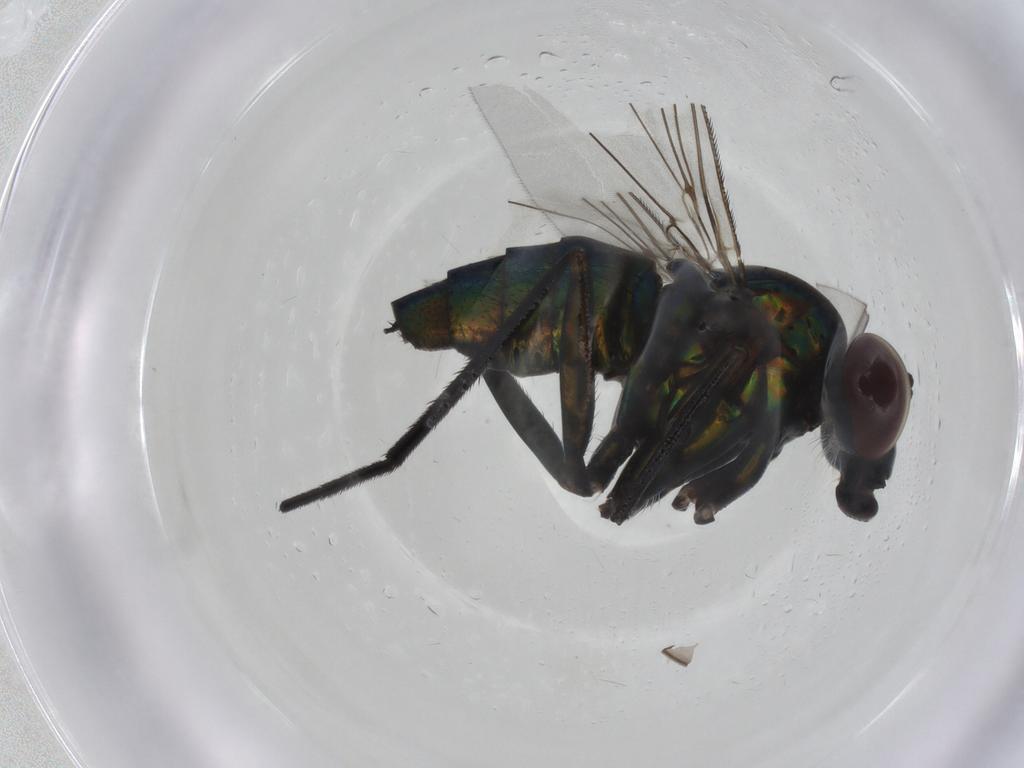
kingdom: Animalia
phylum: Arthropoda
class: Insecta
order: Diptera
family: Dolichopodidae
